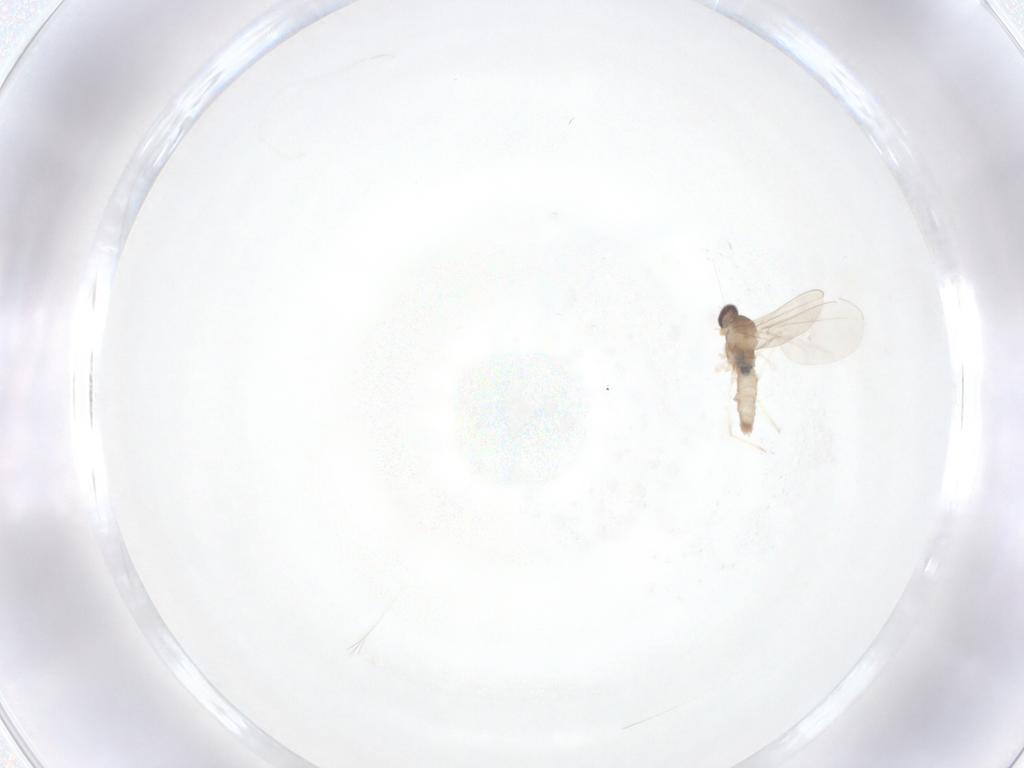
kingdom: Animalia
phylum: Arthropoda
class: Insecta
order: Diptera
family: Cecidomyiidae
